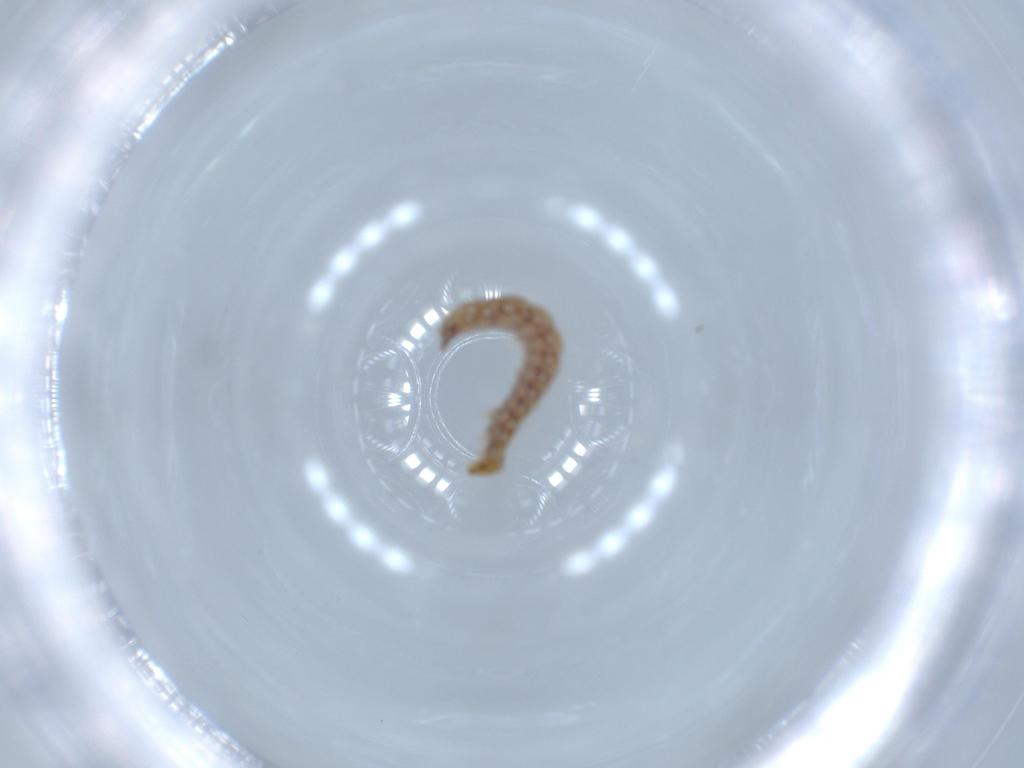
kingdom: Animalia
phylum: Arthropoda
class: Insecta
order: Lepidoptera
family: Bucculatricidae
